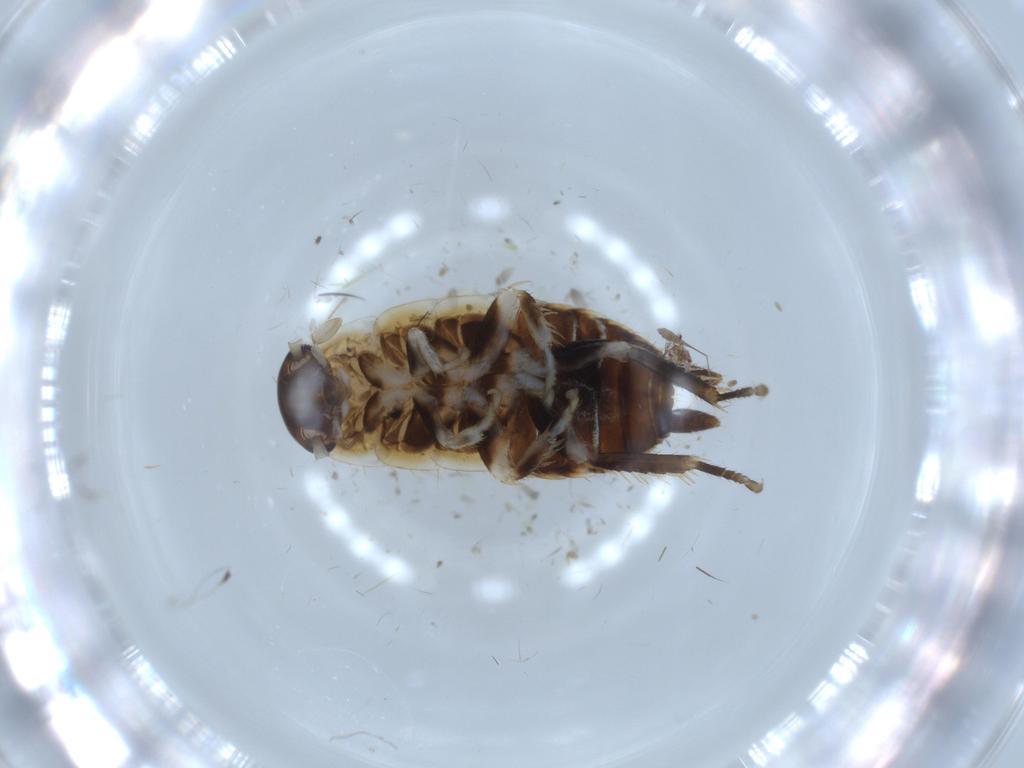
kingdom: Animalia
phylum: Arthropoda
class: Insecta
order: Blattodea
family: Ectobiidae
